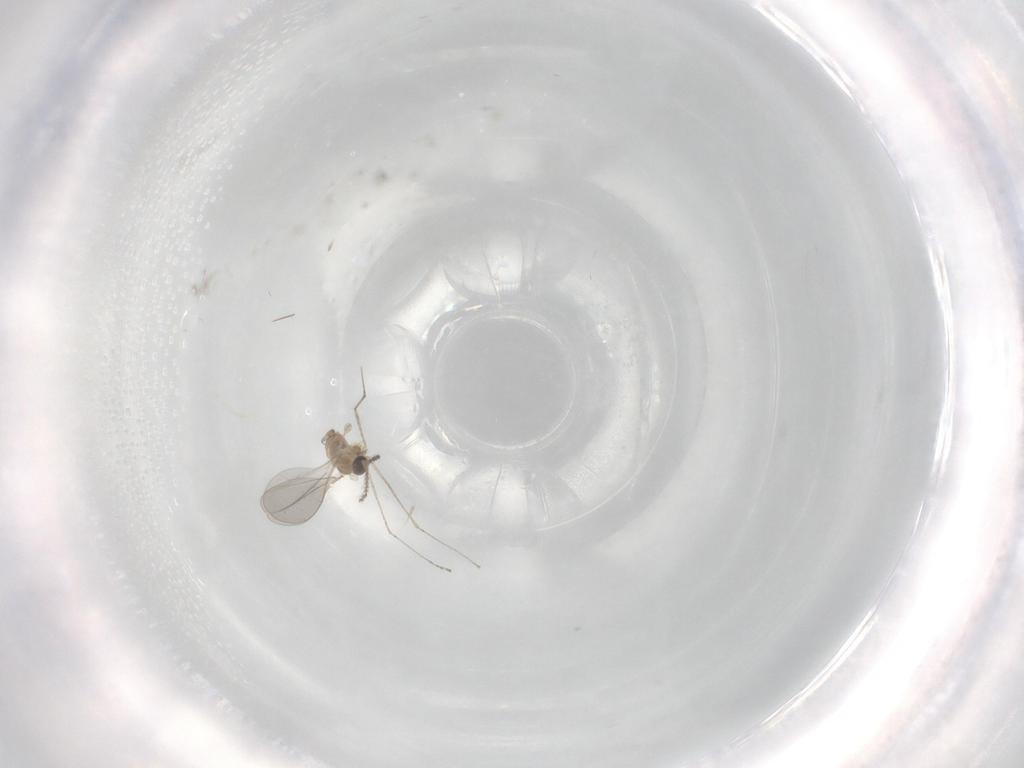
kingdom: Animalia
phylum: Arthropoda
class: Insecta
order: Diptera
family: Cecidomyiidae
